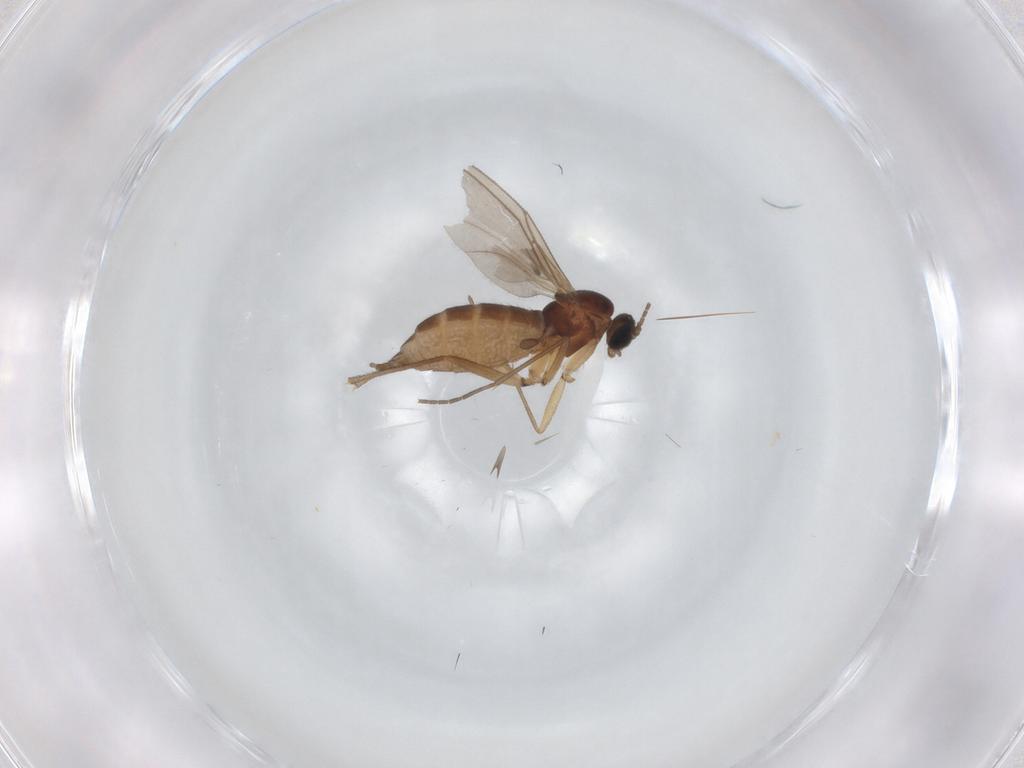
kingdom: Animalia
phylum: Arthropoda
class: Insecta
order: Diptera
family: Sciaridae
